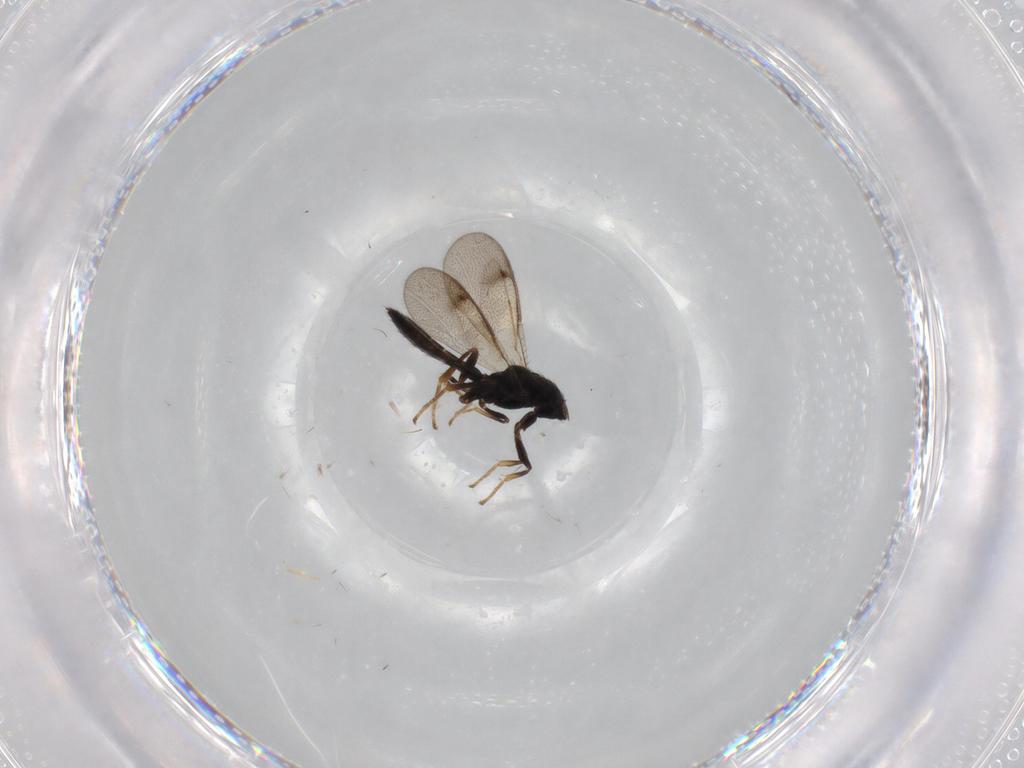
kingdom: Animalia
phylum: Arthropoda
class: Insecta
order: Hymenoptera
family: Pteromalidae
